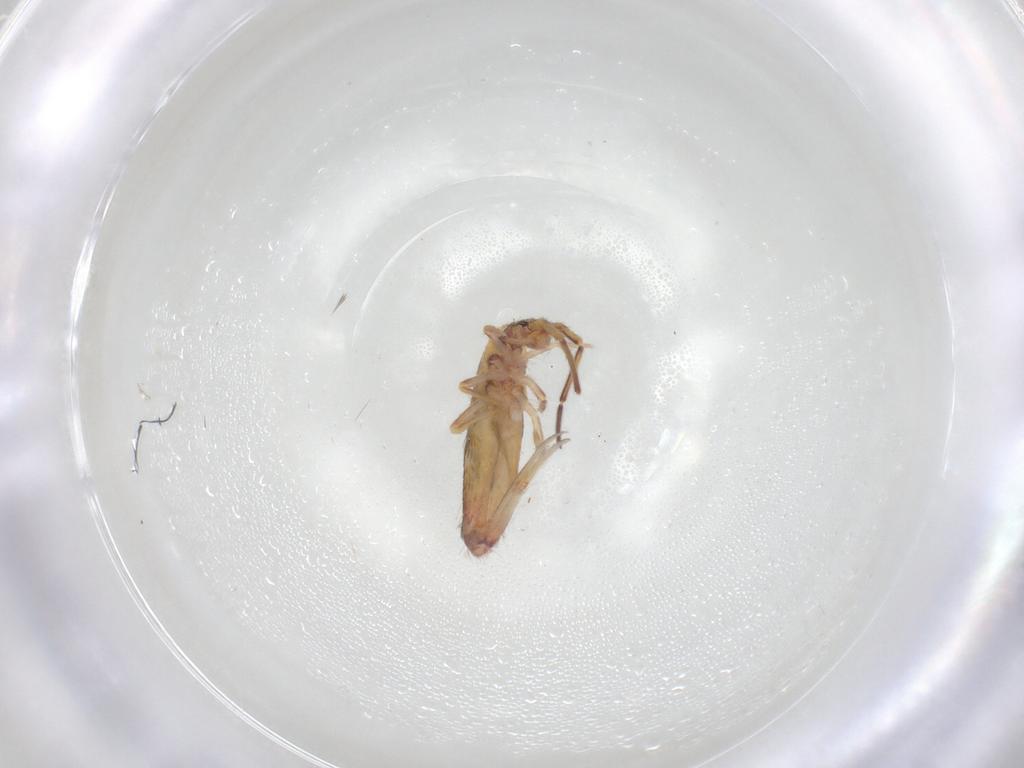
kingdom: Animalia
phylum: Arthropoda
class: Collembola
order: Entomobryomorpha
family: Entomobryidae
